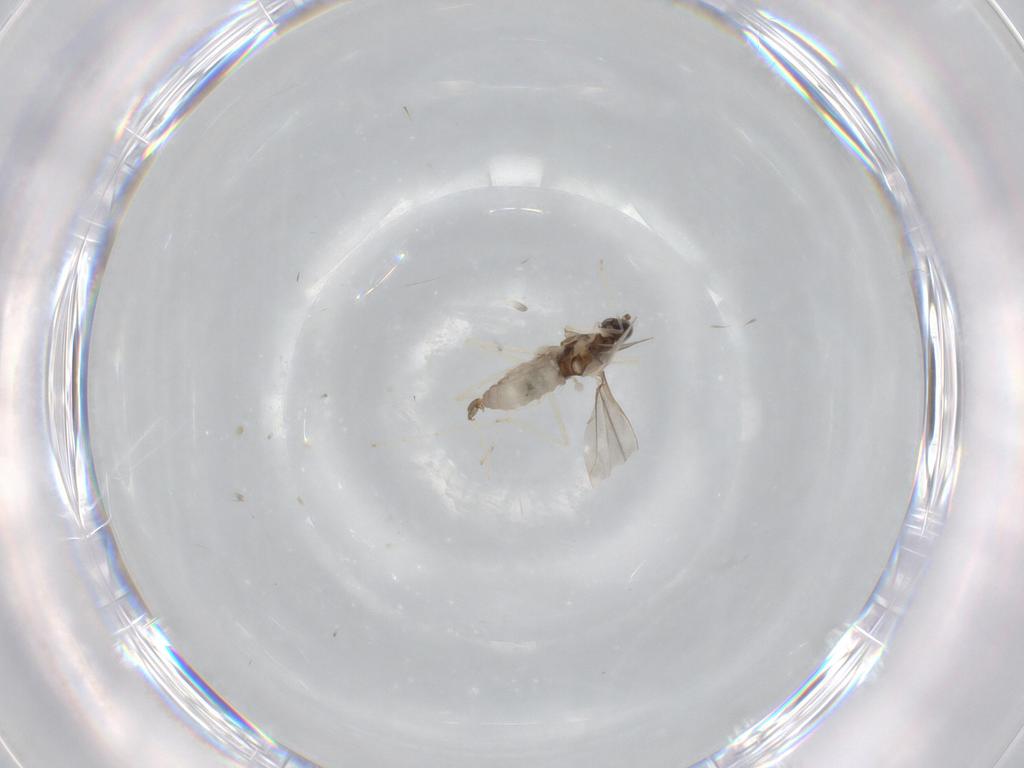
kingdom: Animalia
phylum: Arthropoda
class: Insecta
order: Diptera
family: Cecidomyiidae
